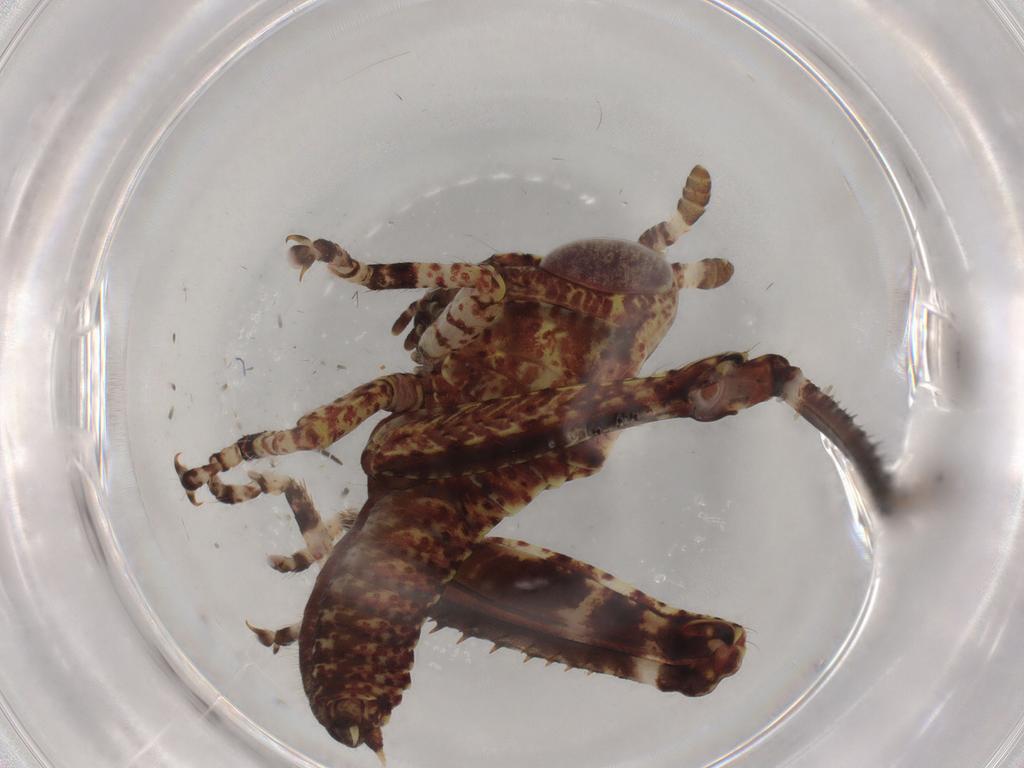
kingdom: Animalia
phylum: Arthropoda
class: Insecta
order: Orthoptera
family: Acrididae
